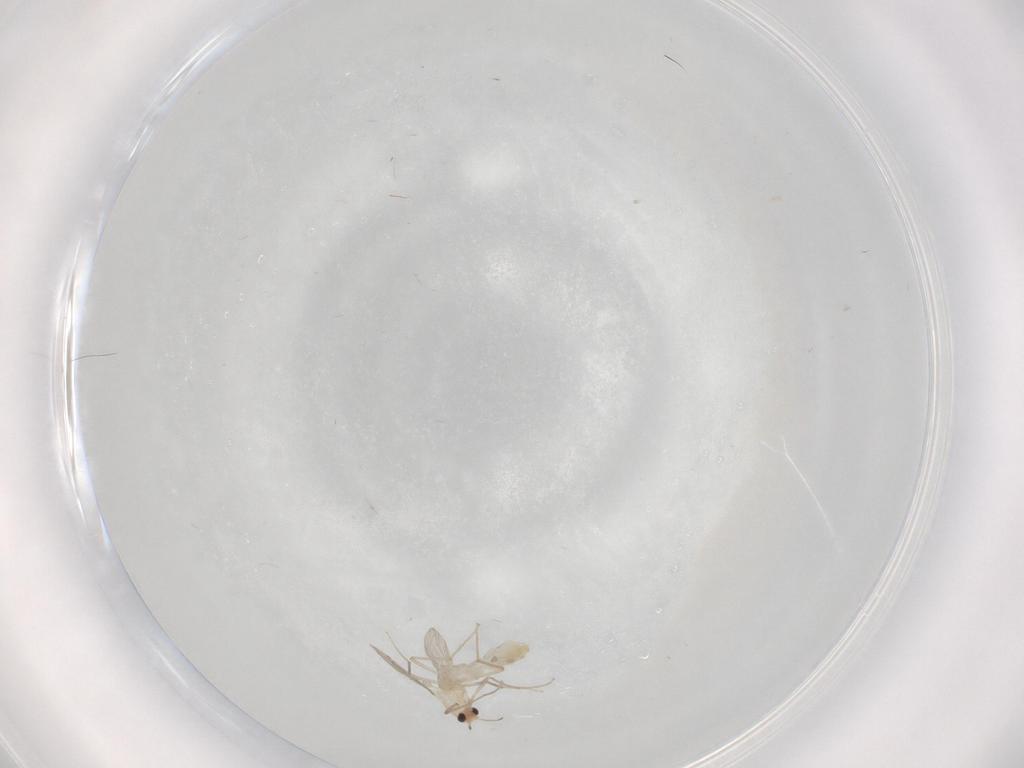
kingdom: Animalia
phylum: Arthropoda
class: Insecta
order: Diptera
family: Chironomidae
